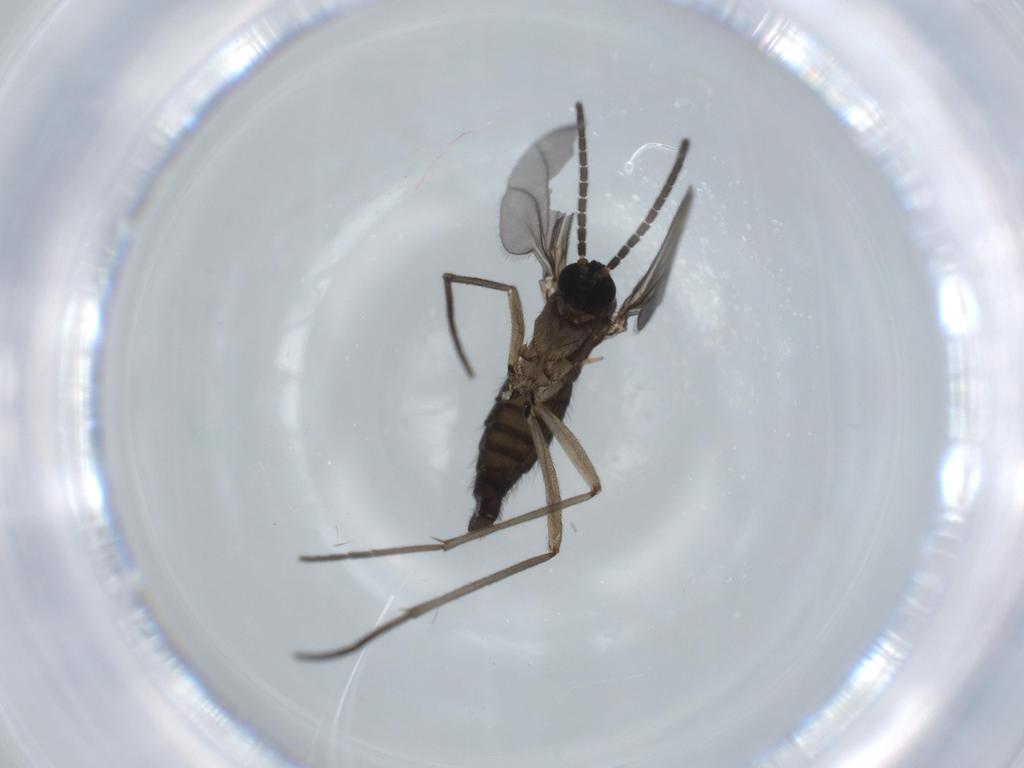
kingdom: Animalia
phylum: Arthropoda
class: Insecta
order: Diptera
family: Sciaridae
